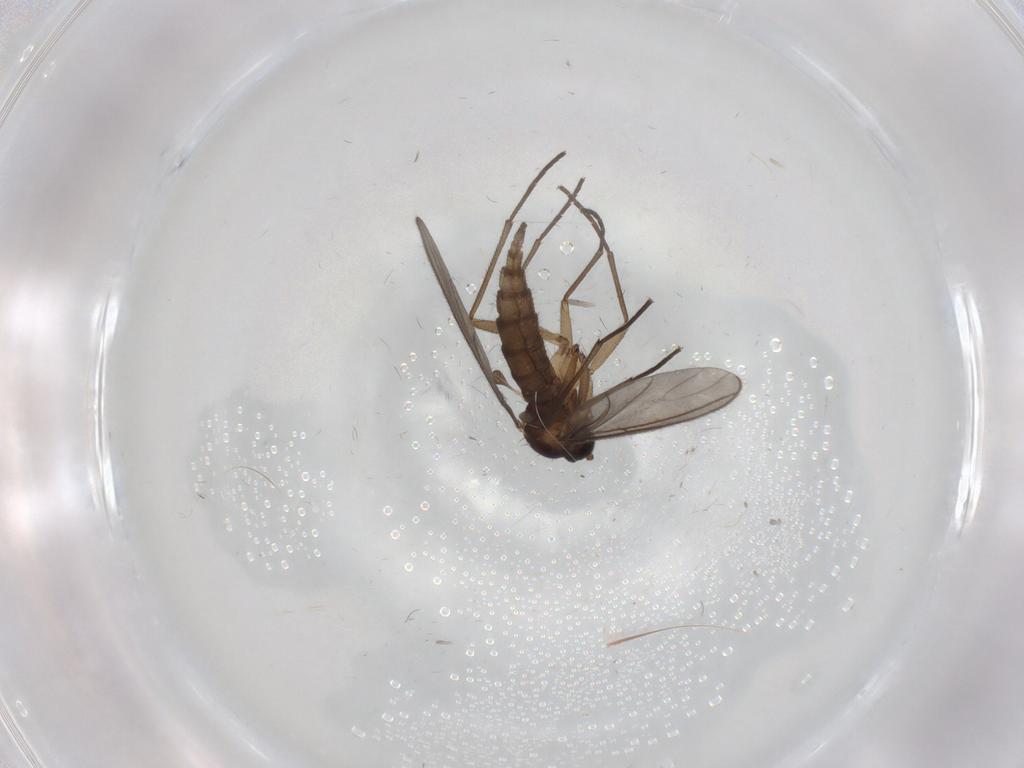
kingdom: Animalia
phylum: Arthropoda
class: Insecta
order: Diptera
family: Sciaridae
